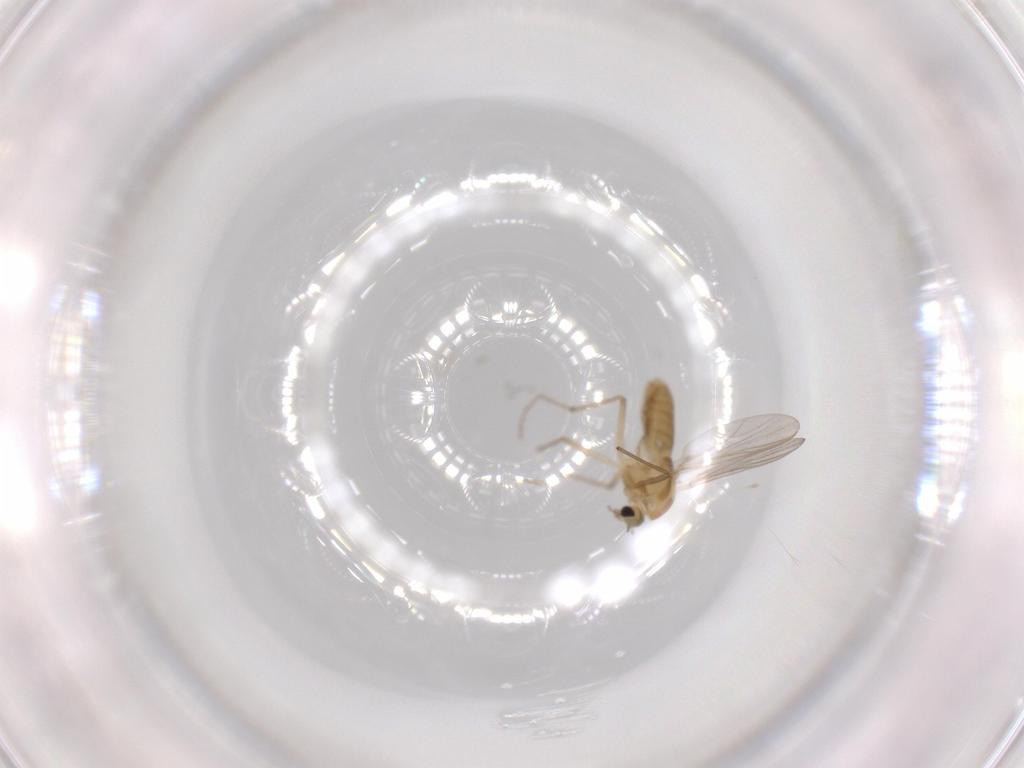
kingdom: Animalia
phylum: Arthropoda
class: Insecta
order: Diptera
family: Chironomidae
